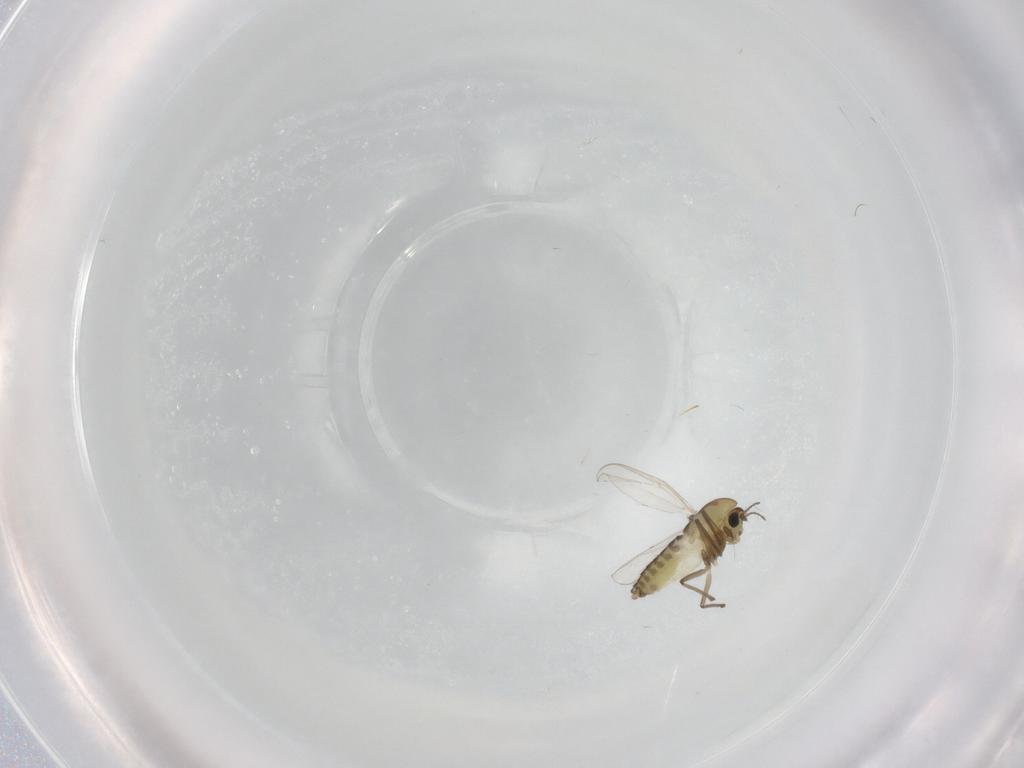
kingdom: Animalia
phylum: Arthropoda
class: Insecta
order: Diptera
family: Chironomidae
